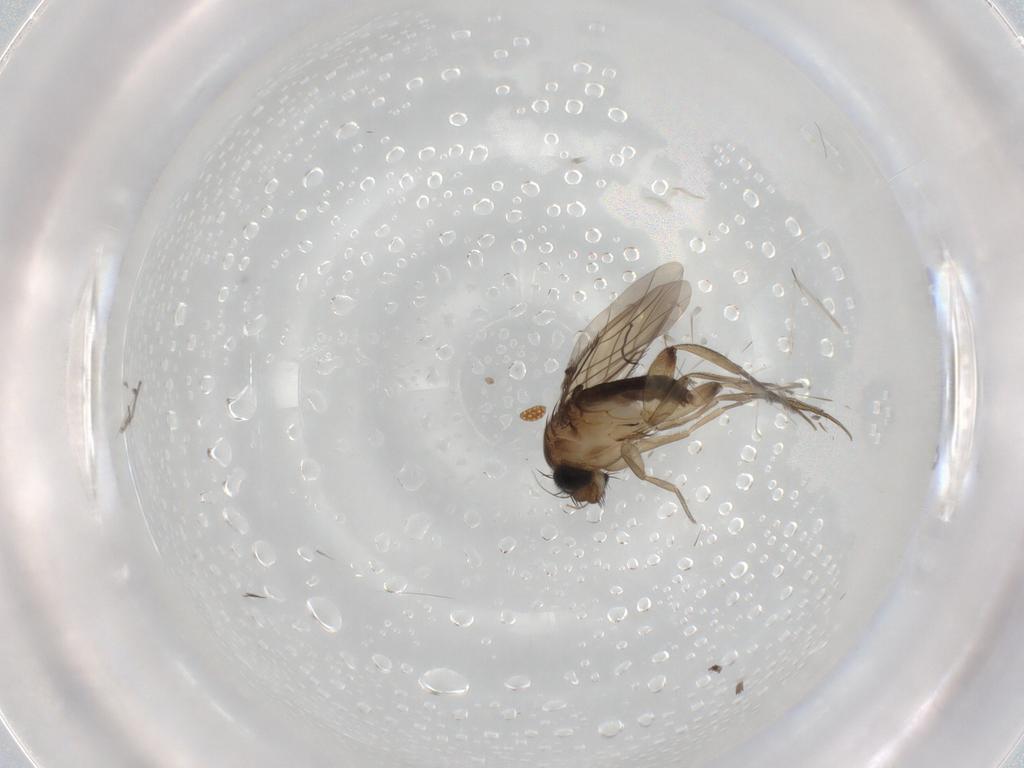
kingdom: Animalia
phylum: Arthropoda
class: Insecta
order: Diptera
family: Phoridae
